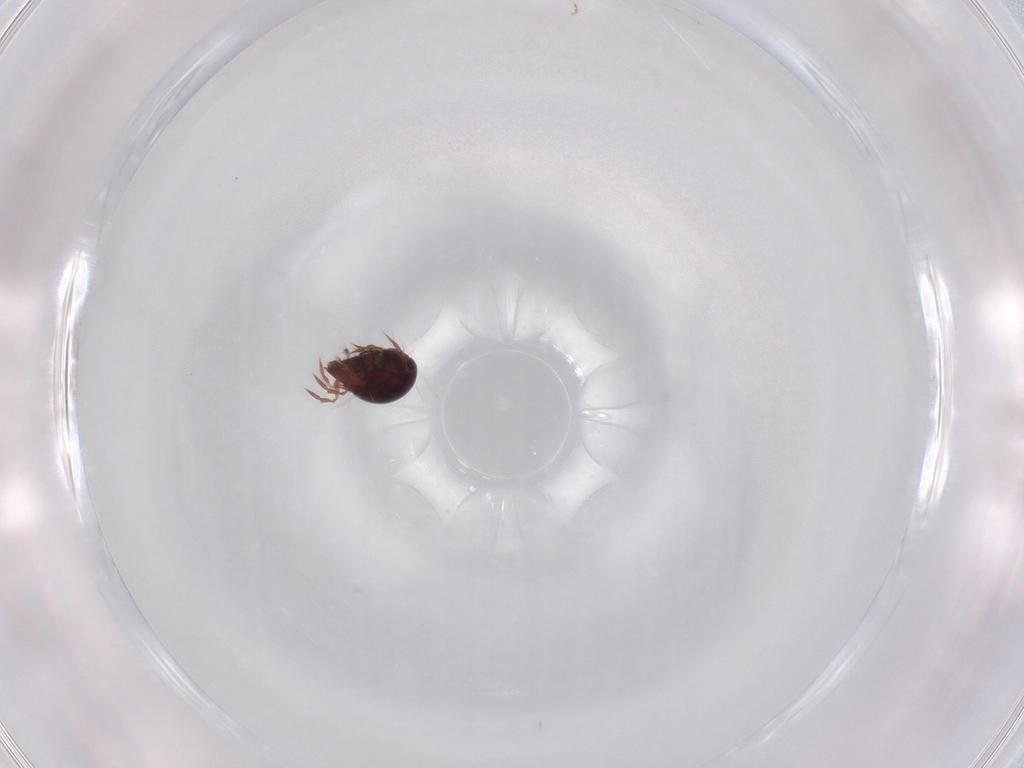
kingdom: Animalia
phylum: Arthropoda
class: Arachnida
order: Sarcoptiformes
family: Ceratoppiidae
